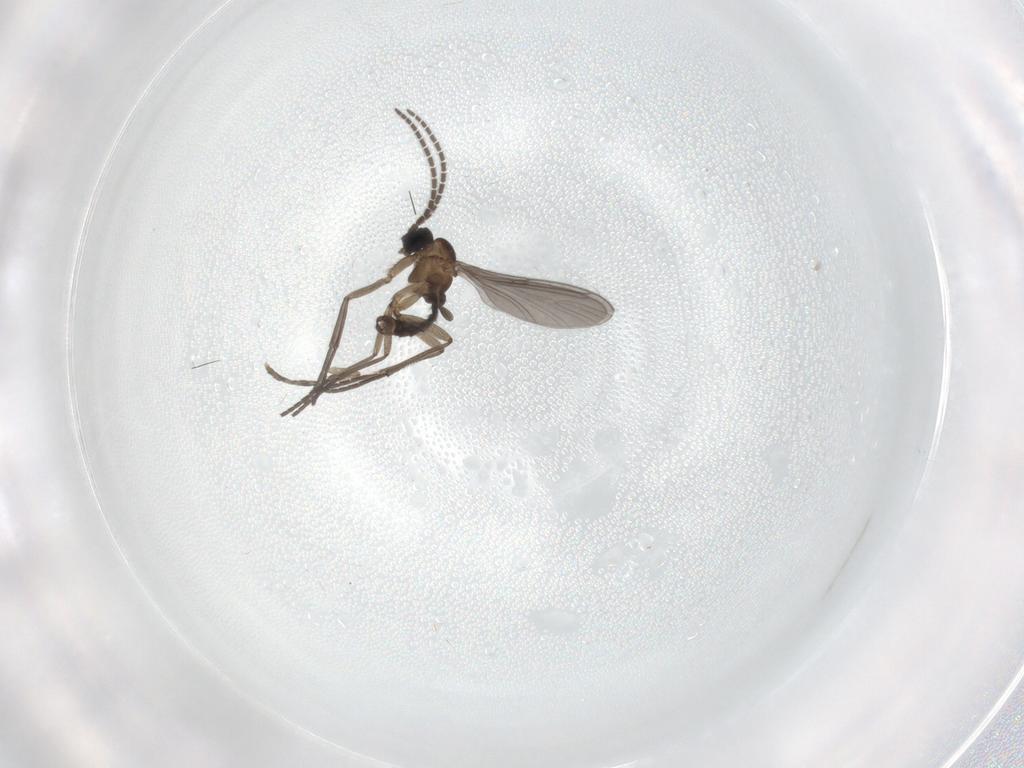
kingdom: Animalia
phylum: Arthropoda
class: Insecta
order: Diptera
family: Sciaridae
